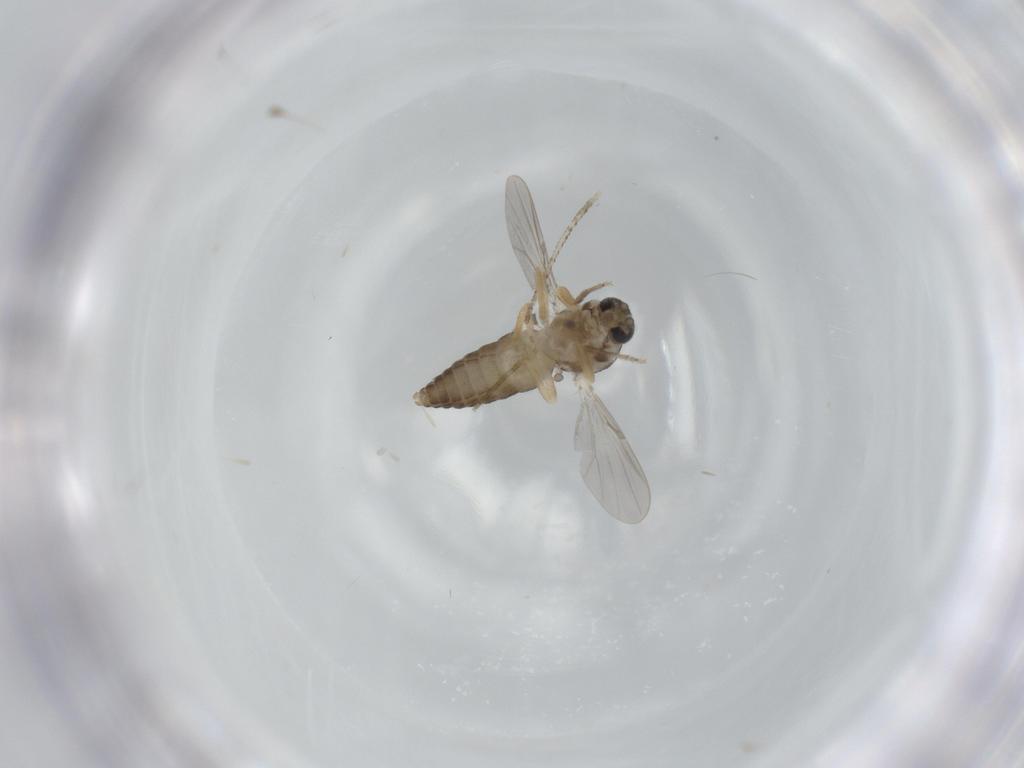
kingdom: Animalia
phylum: Arthropoda
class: Insecta
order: Diptera
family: Ceratopogonidae
